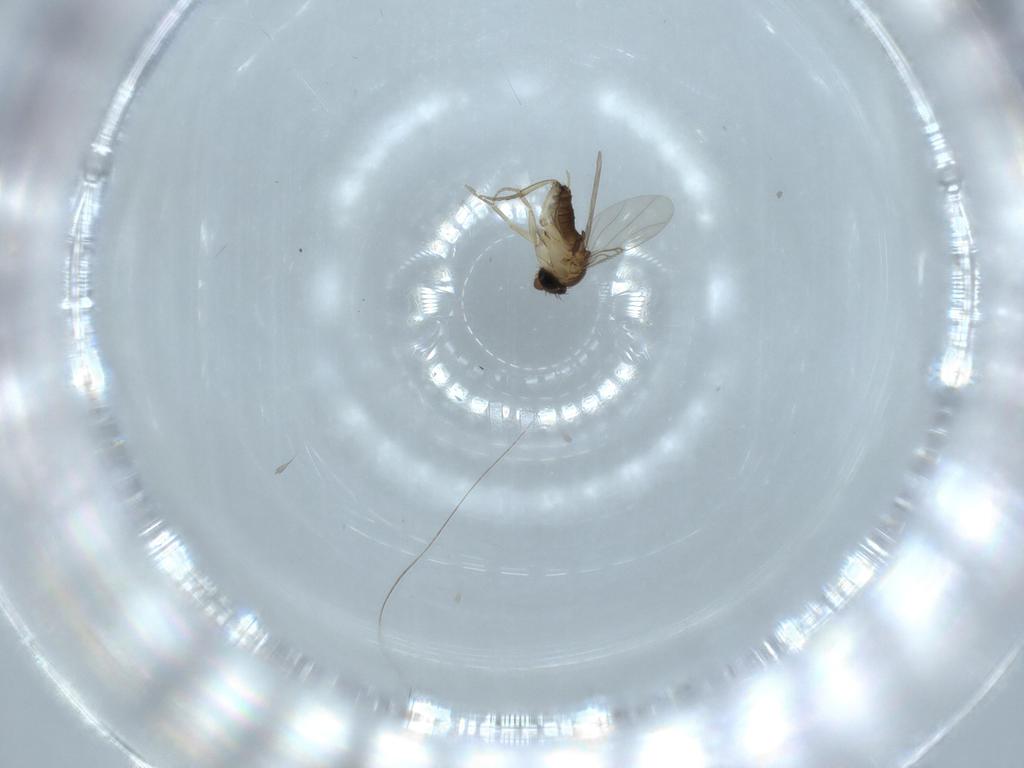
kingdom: Animalia
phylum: Arthropoda
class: Insecta
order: Diptera
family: Phoridae
